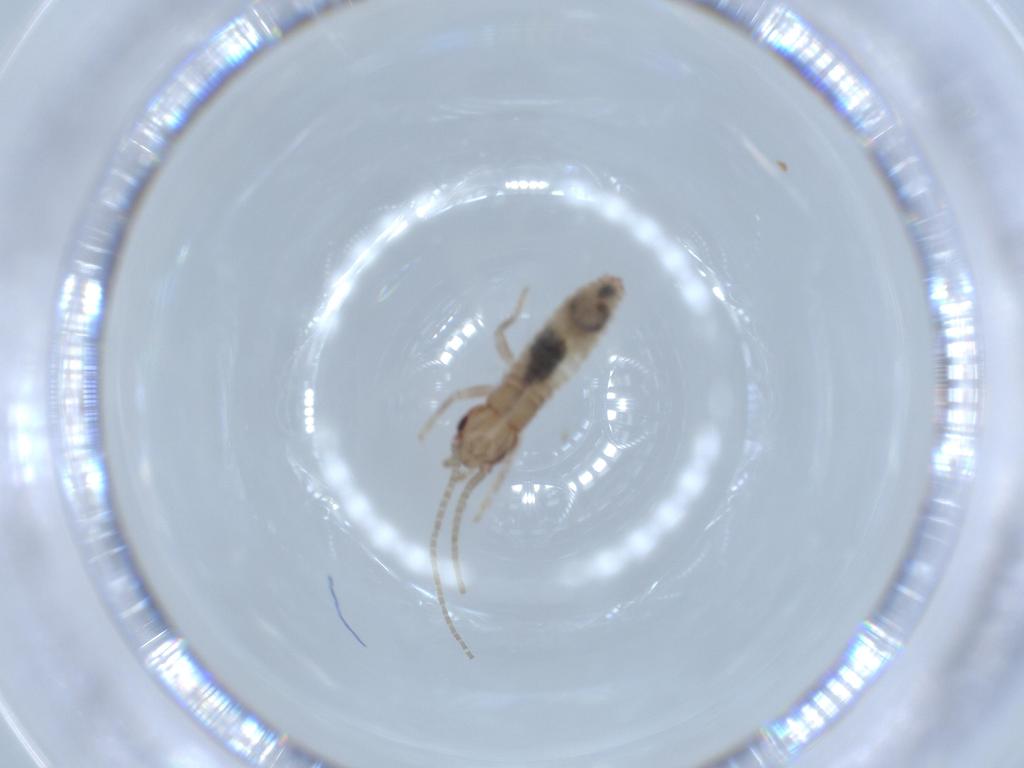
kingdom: Animalia
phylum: Arthropoda
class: Insecta
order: Orthoptera
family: Mogoplistidae
